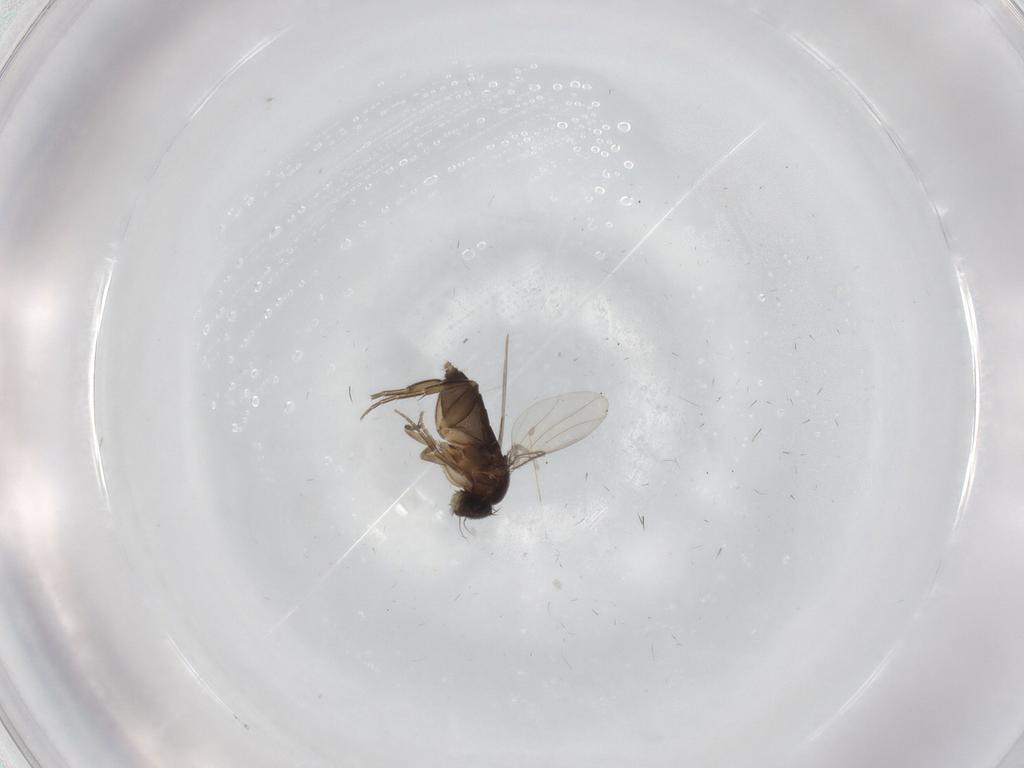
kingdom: Animalia
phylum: Arthropoda
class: Insecta
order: Diptera
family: Phoridae
